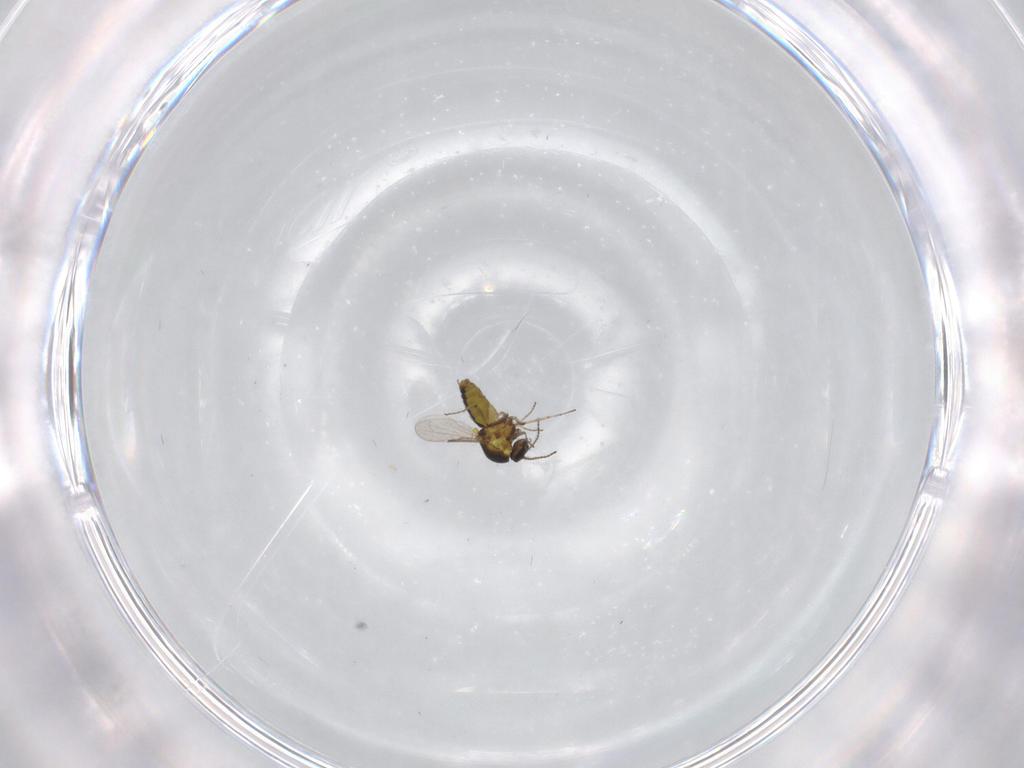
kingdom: Animalia
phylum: Arthropoda
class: Insecta
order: Diptera
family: Ceratopogonidae
